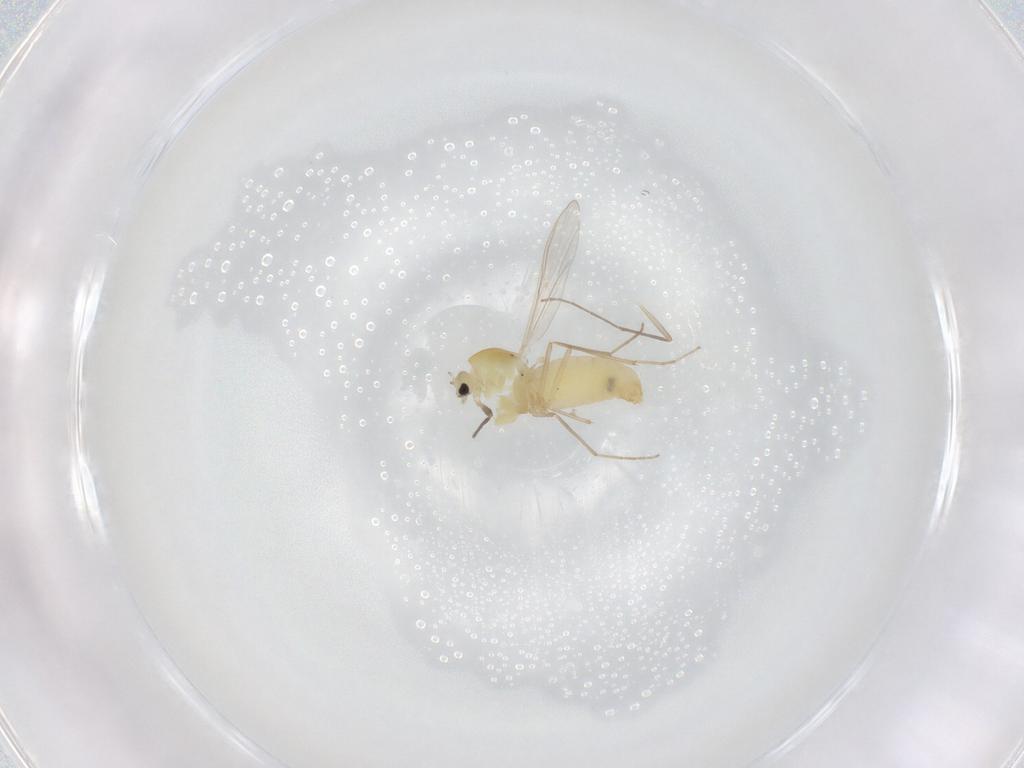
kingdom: Animalia
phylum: Arthropoda
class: Insecta
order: Diptera
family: Chironomidae
